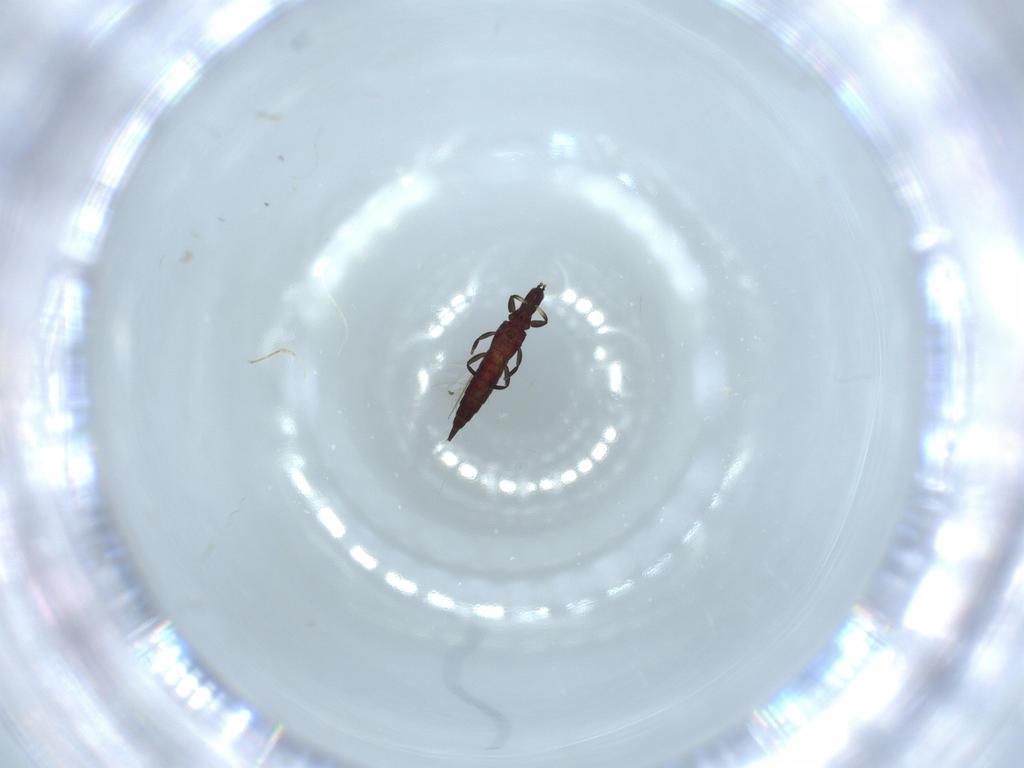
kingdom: Animalia
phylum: Arthropoda
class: Insecta
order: Thysanoptera
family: Phlaeothripidae
